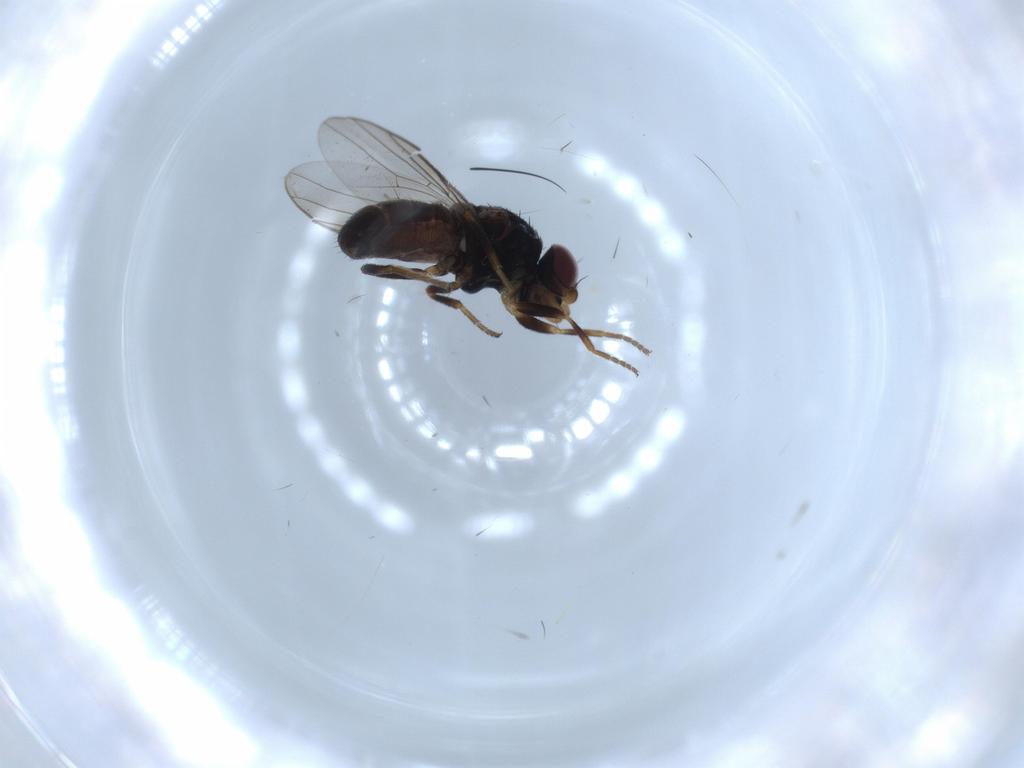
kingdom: Animalia
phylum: Arthropoda
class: Insecta
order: Diptera
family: Chloropidae
